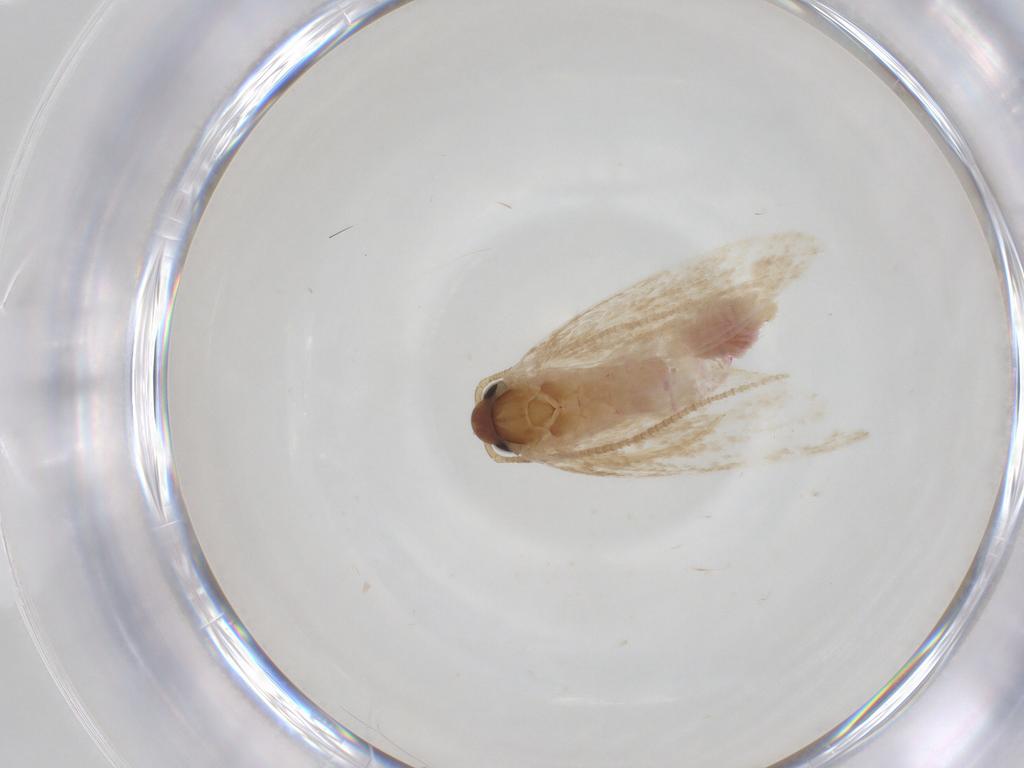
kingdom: Animalia
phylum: Arthropoda
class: Insecta
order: Lepidoptera
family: Autostichidae
